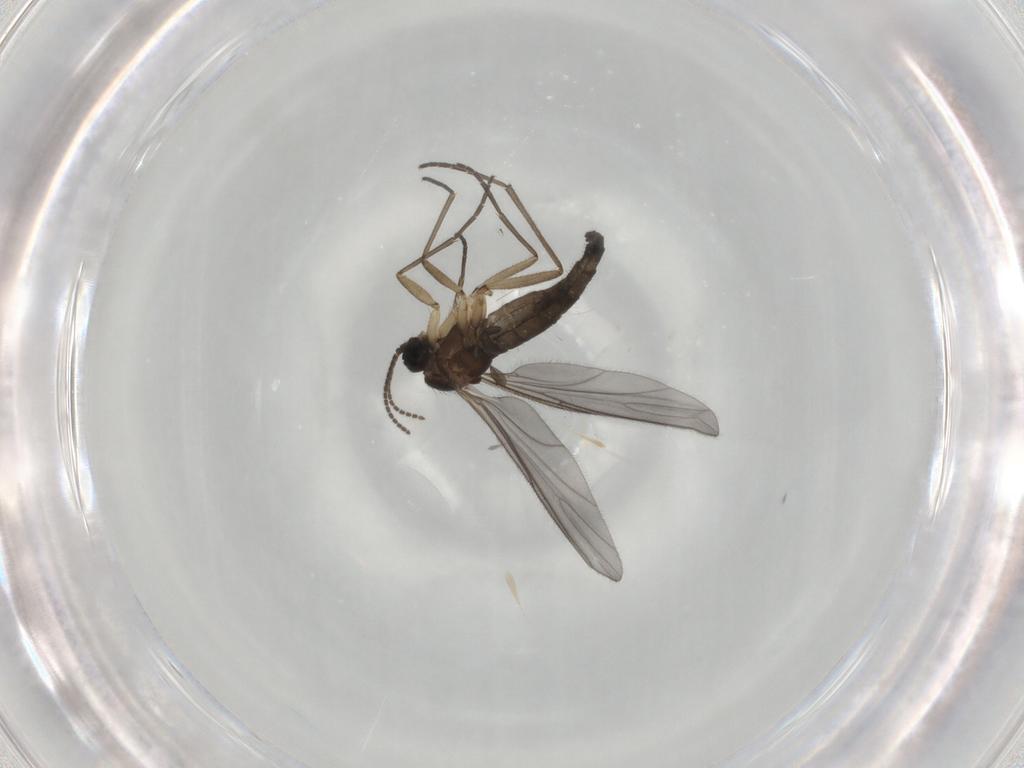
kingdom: Animalia
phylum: Arthropoda
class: Insecta
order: Diptera
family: Sciaridae
